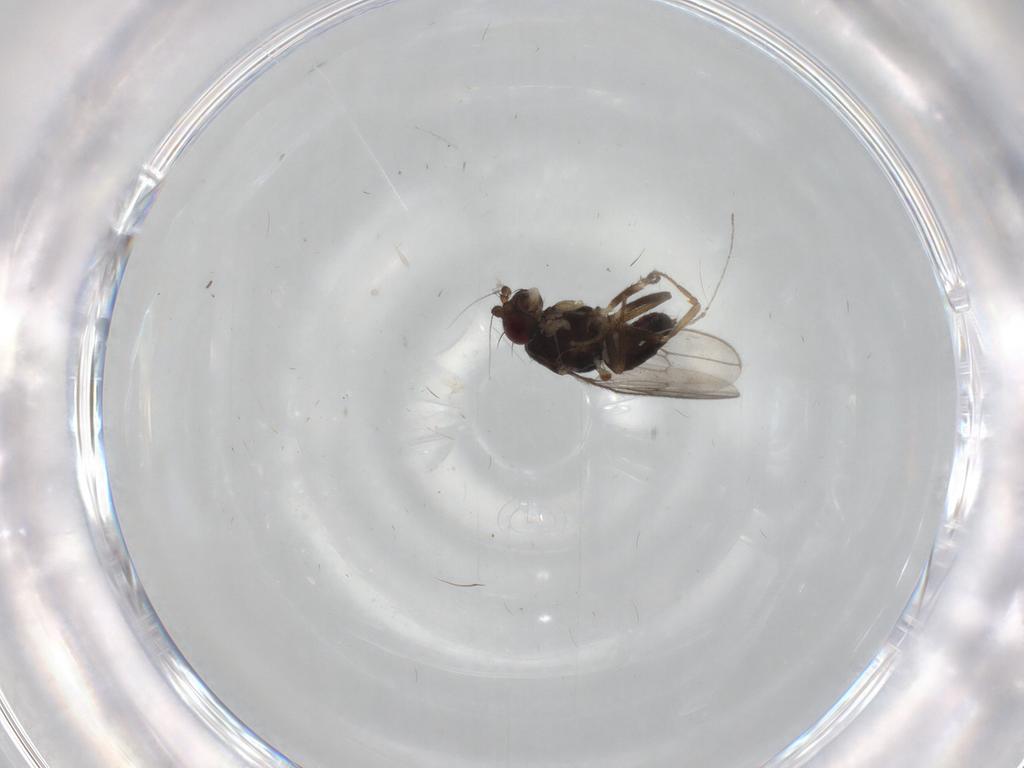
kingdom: Animalia
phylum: Arthropoda
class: Insecta
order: Diptera
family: Sphaeroceridae
